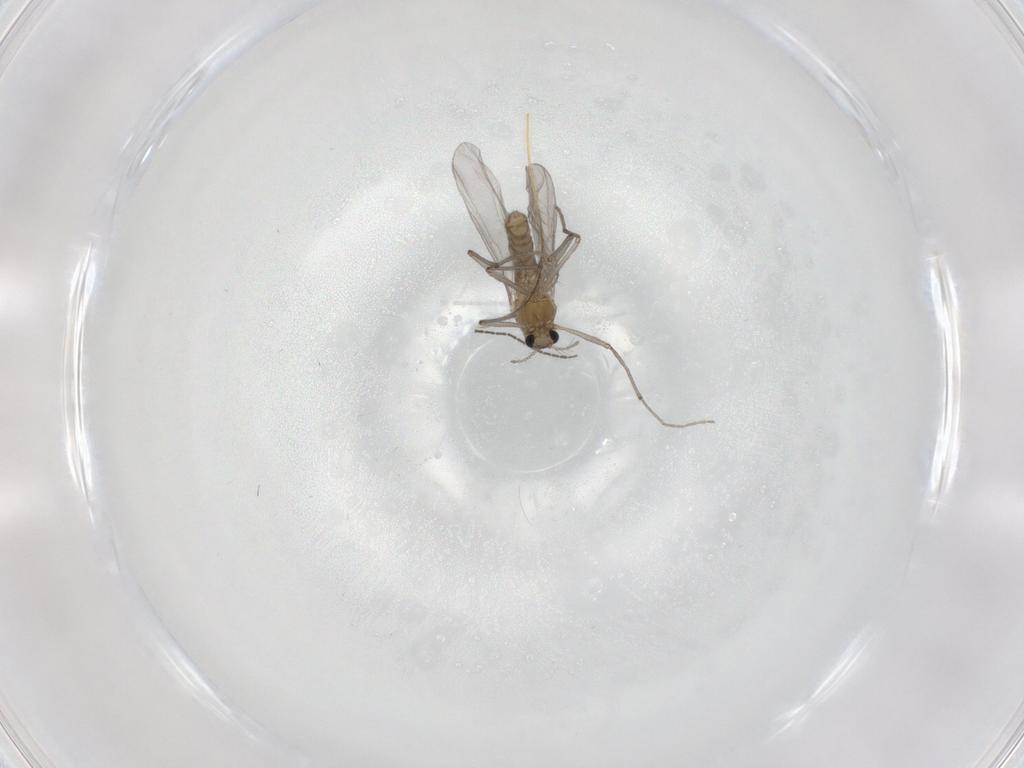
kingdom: Animalia
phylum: Arthropoda
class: Insecta
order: Diptera
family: Chironomidae
